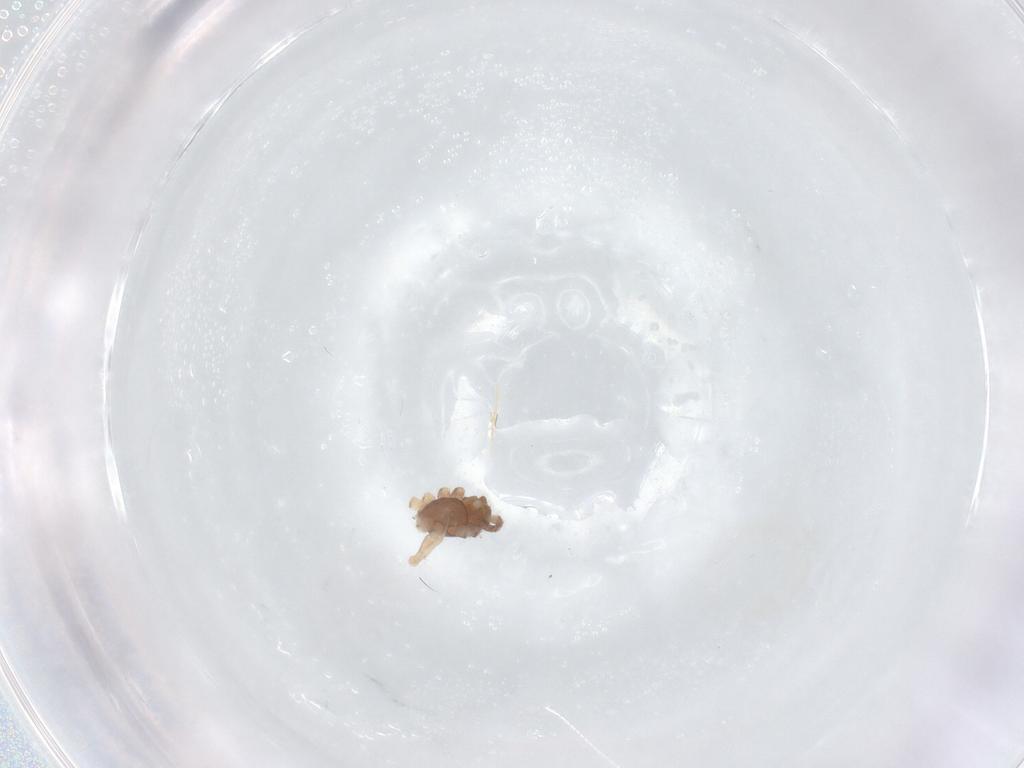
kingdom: Animalia
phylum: Arthropoda
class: Arachnida
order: Araneae
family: Gnaphosidae
